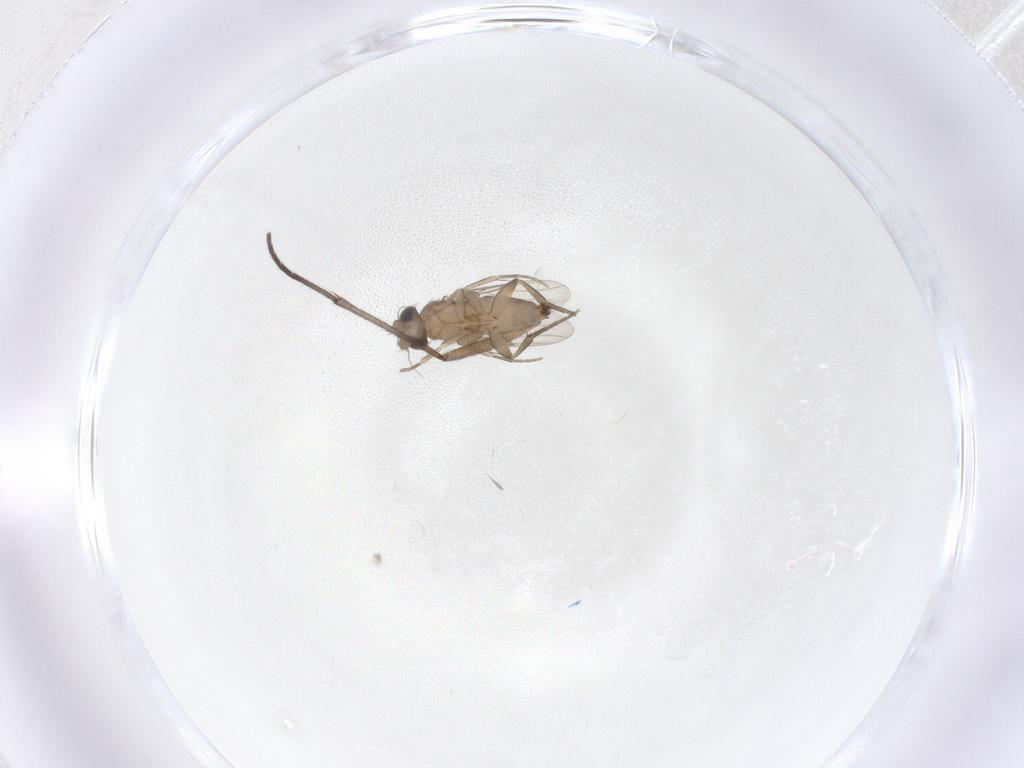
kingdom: Animalia
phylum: Arthropoda
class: Insecta
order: Diptera
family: Phoridae
